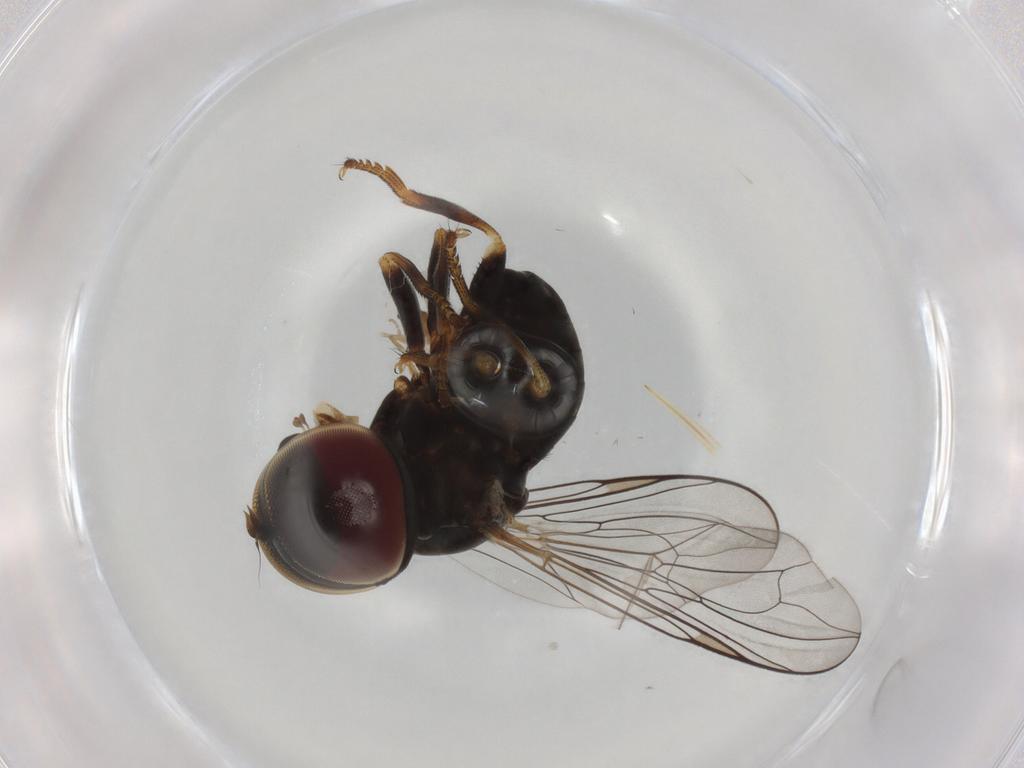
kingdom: Animalia
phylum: Arthropoda
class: Insecta
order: Diptera
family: Pipunculidae
